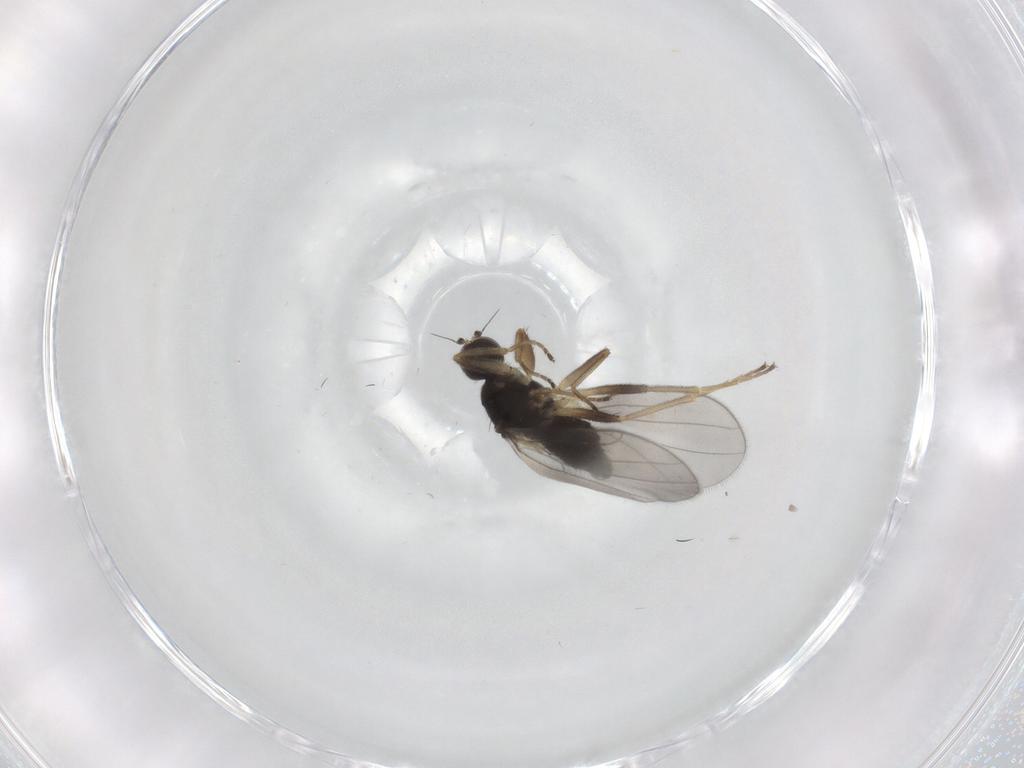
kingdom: Animalia
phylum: Arthropoda
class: Insecta
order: Diptera
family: Hybotidae
